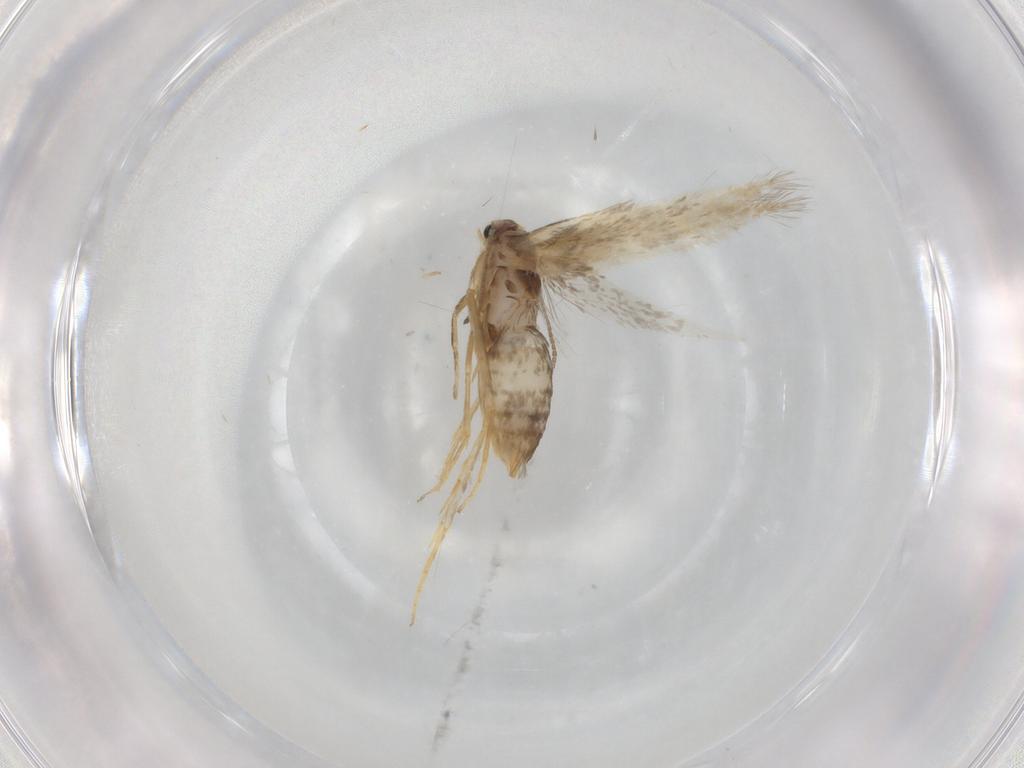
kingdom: Animalia
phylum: Arthropoda
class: Insecta
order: Lepidoptera
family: Nepticulidae
